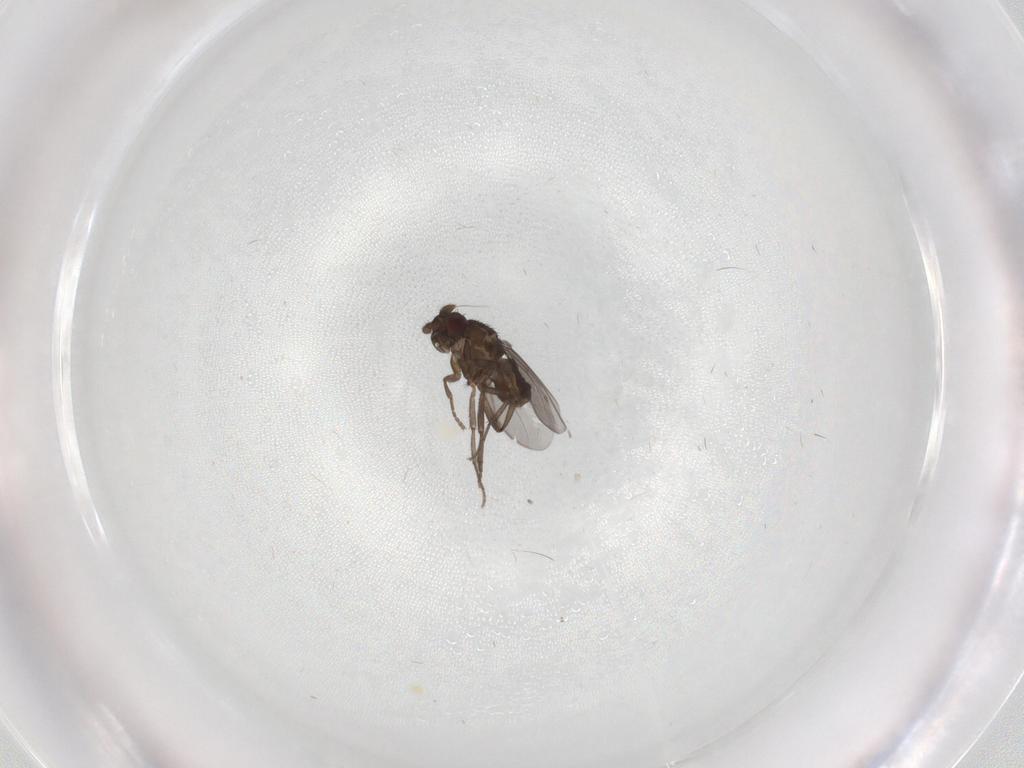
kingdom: Animalia
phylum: Arthropoda
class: Insecta
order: Diptera
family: Sphaeroceridae
